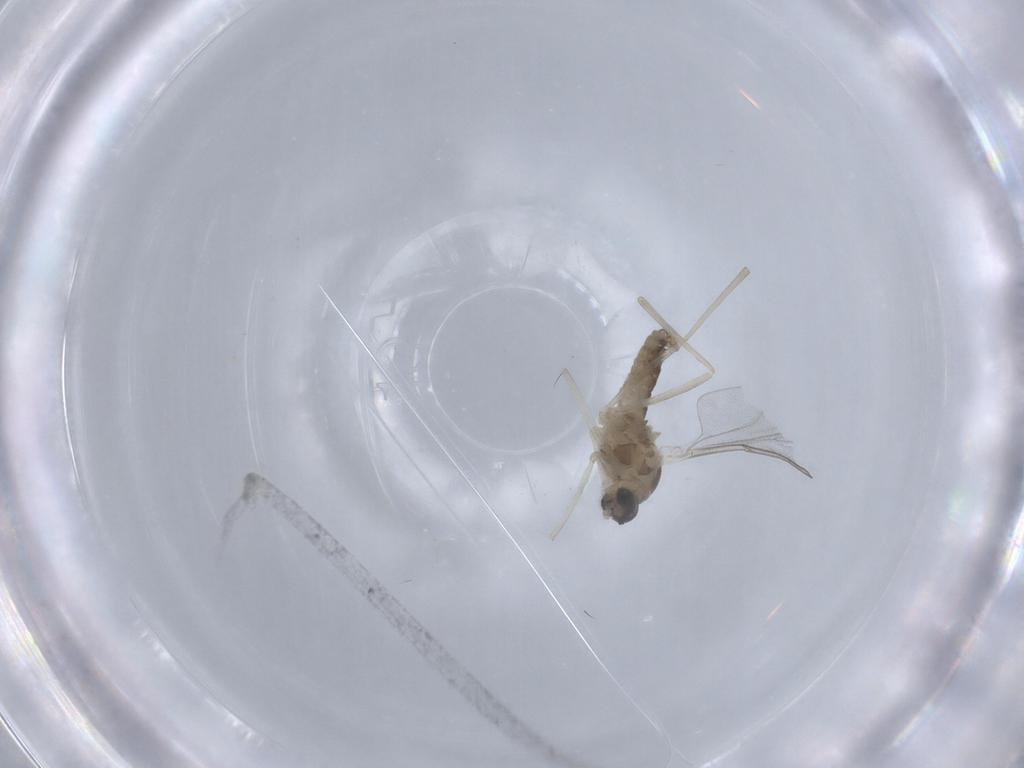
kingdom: Animalia
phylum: Arthropoda
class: Insecta
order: Diptera
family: Cecidomyiidae
